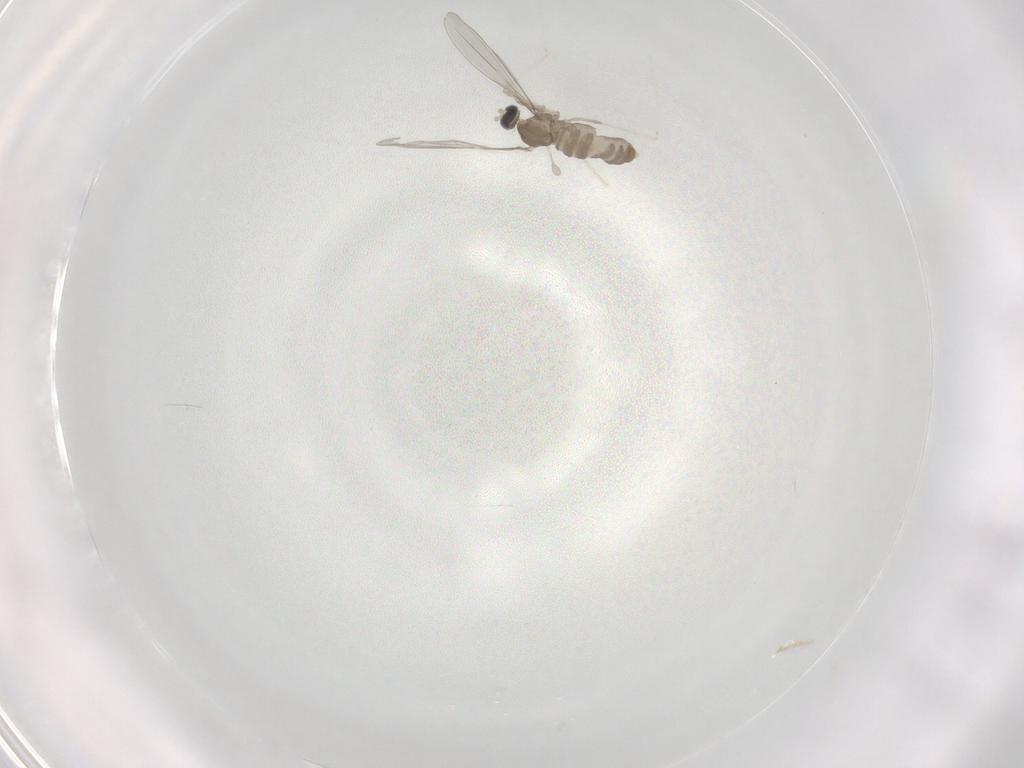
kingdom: Animalia
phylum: Arthropoda
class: Insecta
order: Diptera
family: Cecidomyiidae
